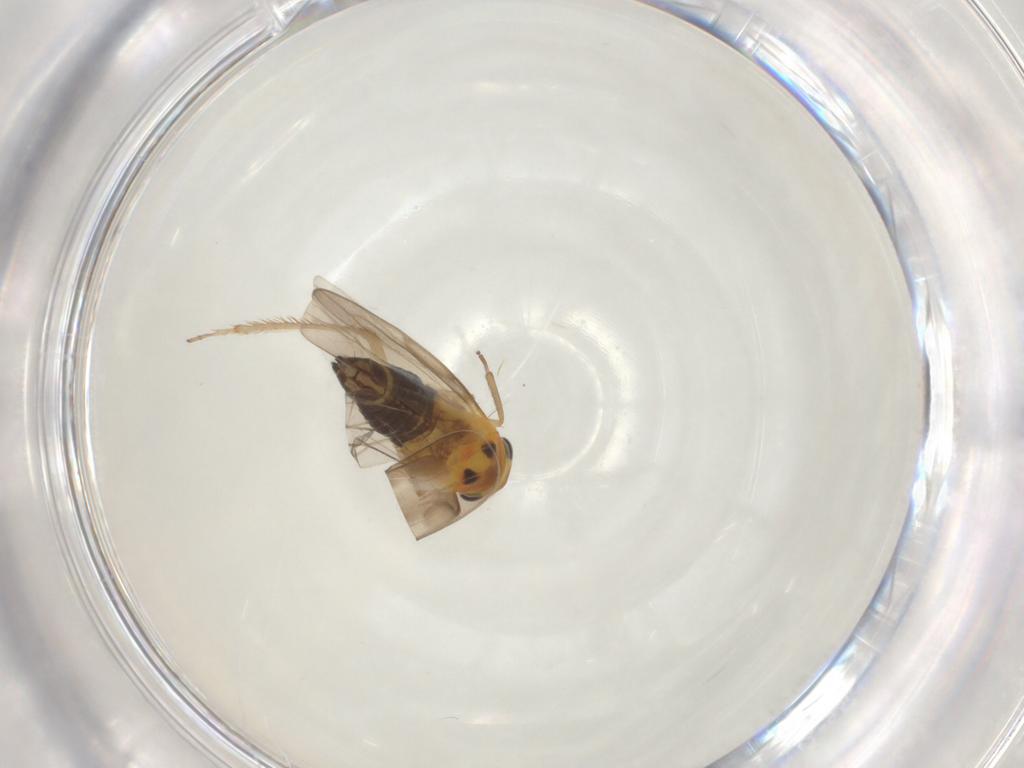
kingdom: Animalia
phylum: Arthropoda
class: Insecta
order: Hemiptera
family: Cicadellidae
